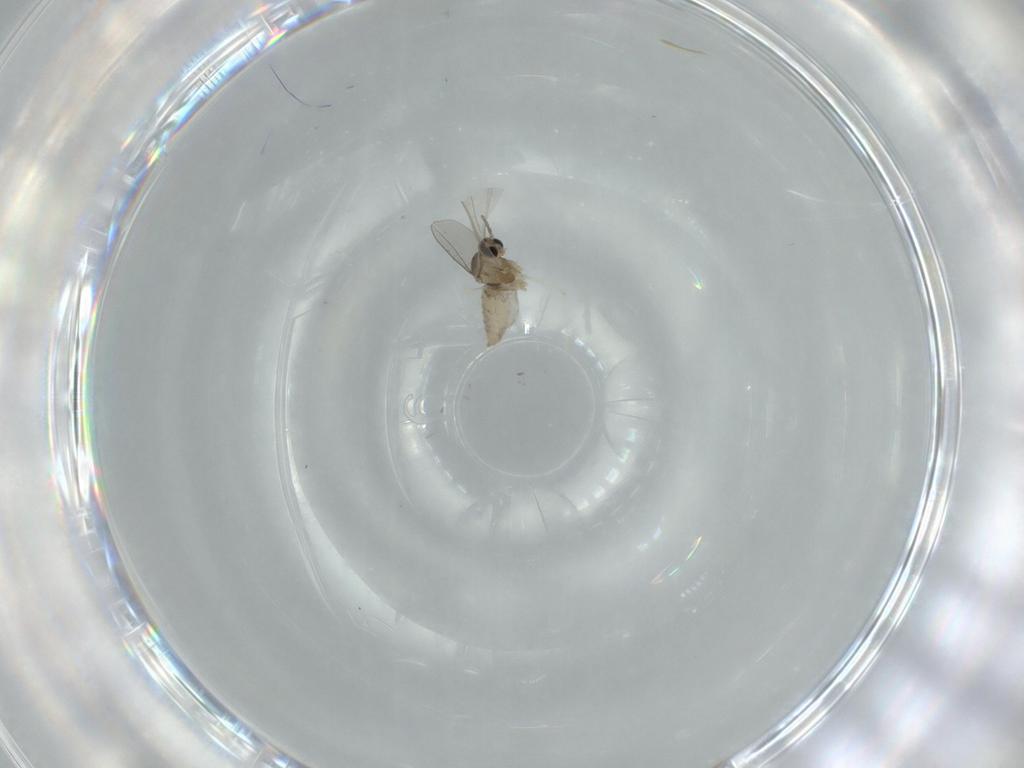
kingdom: Animalia
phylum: Arthropoda
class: Insecta
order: Diptera
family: Phoridae
